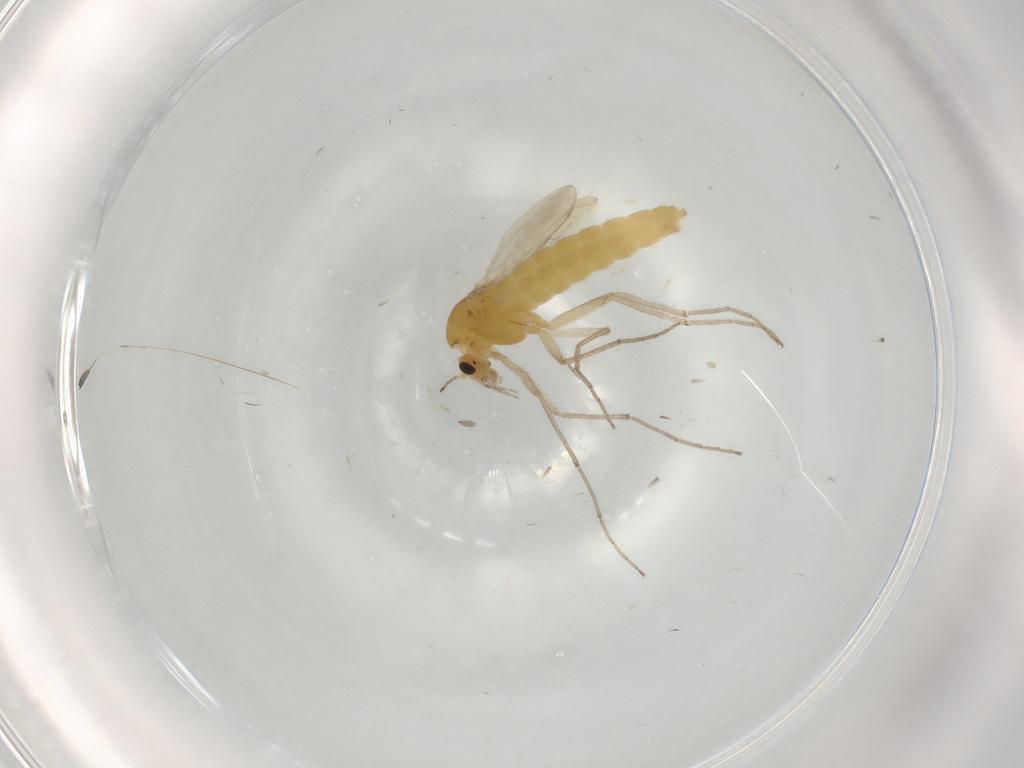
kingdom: Animalia
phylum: Arthropoda
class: Insecta
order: Diptera
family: Chironomidae
